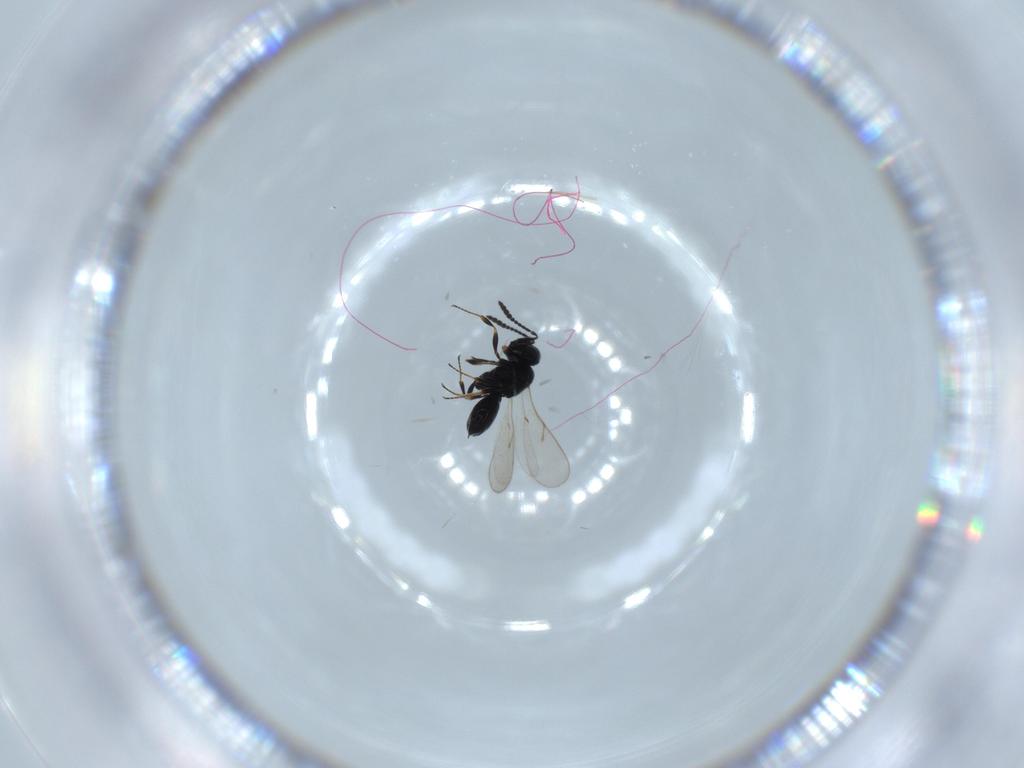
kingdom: Animalia
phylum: Arthropoda
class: Insecta
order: Hymenoptera
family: Scelionidae
